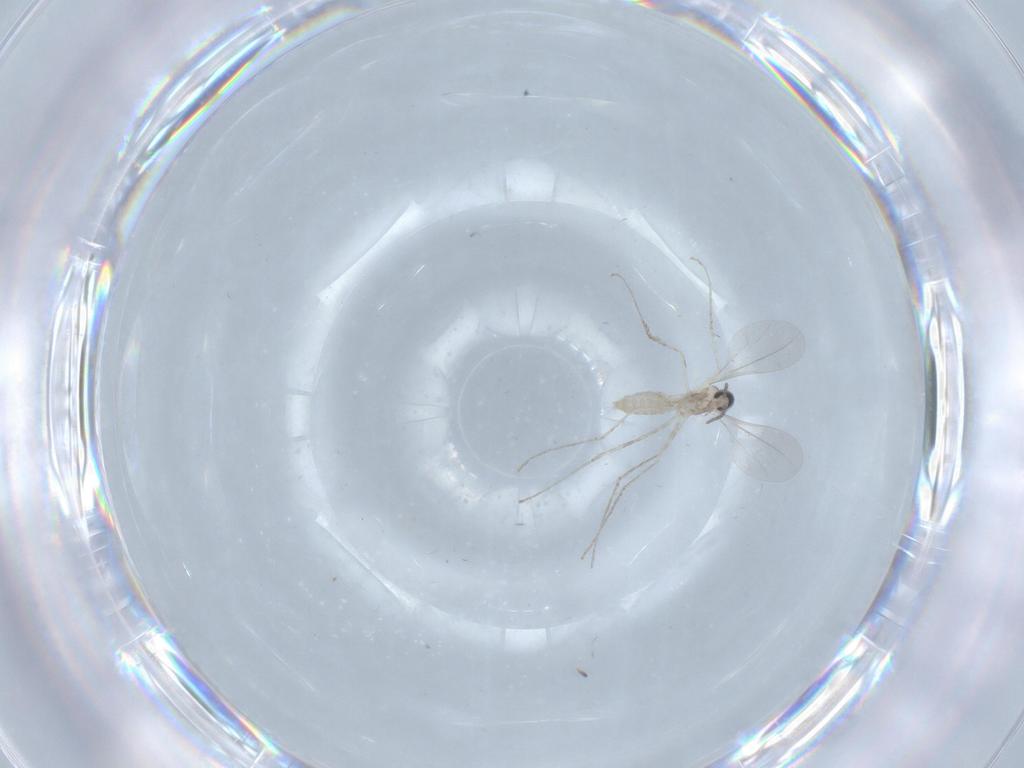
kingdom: Animalia
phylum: Arthropoda
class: Insecta
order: Diptera
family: Cecidomyiidae
